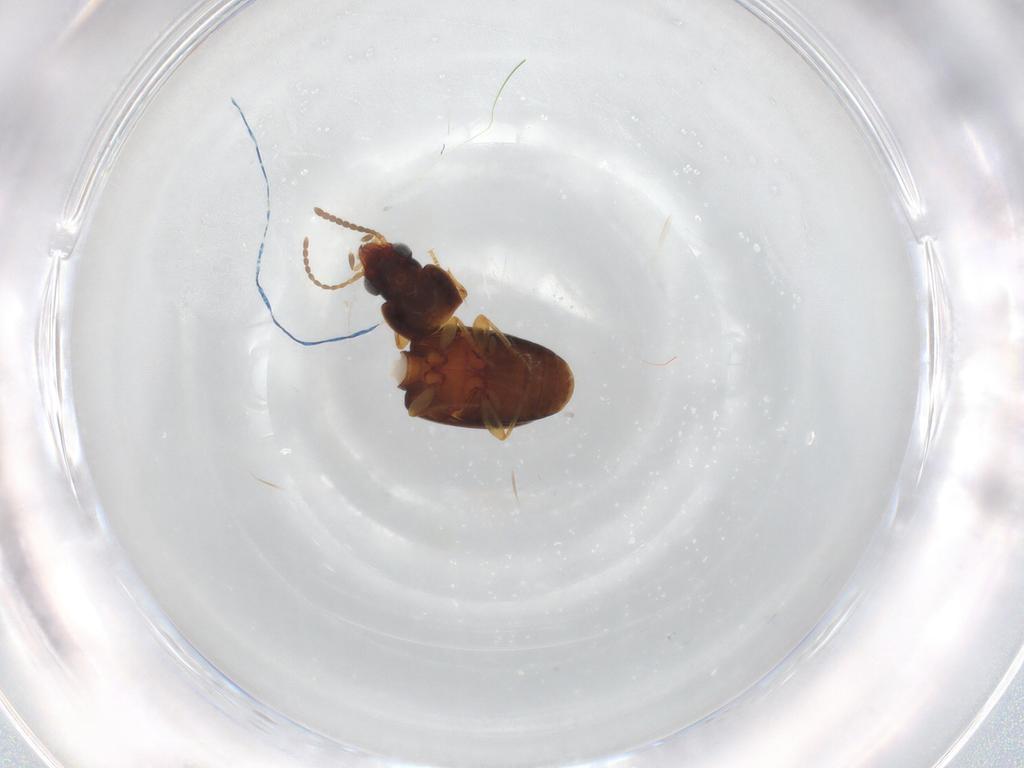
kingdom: Animalia
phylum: Arthropoda
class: Insecta
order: Coleoptera
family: Carabidae
